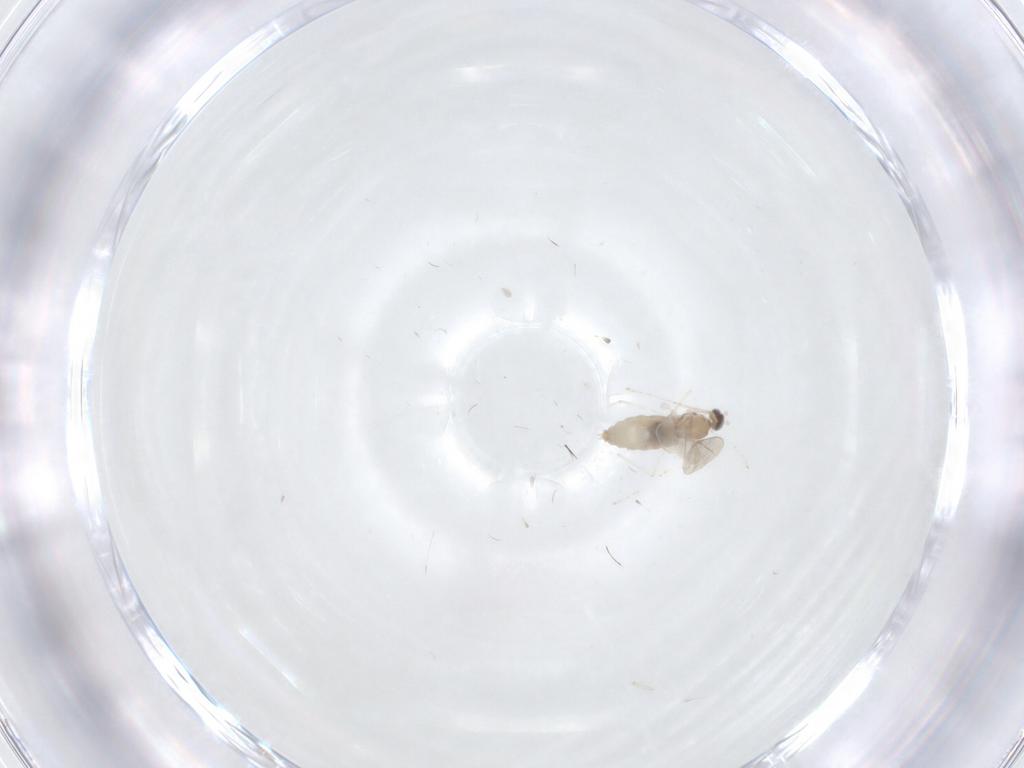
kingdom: Animalia
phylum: Arthropoda
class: Insecta
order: Diptera
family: Cecidomyiidae
